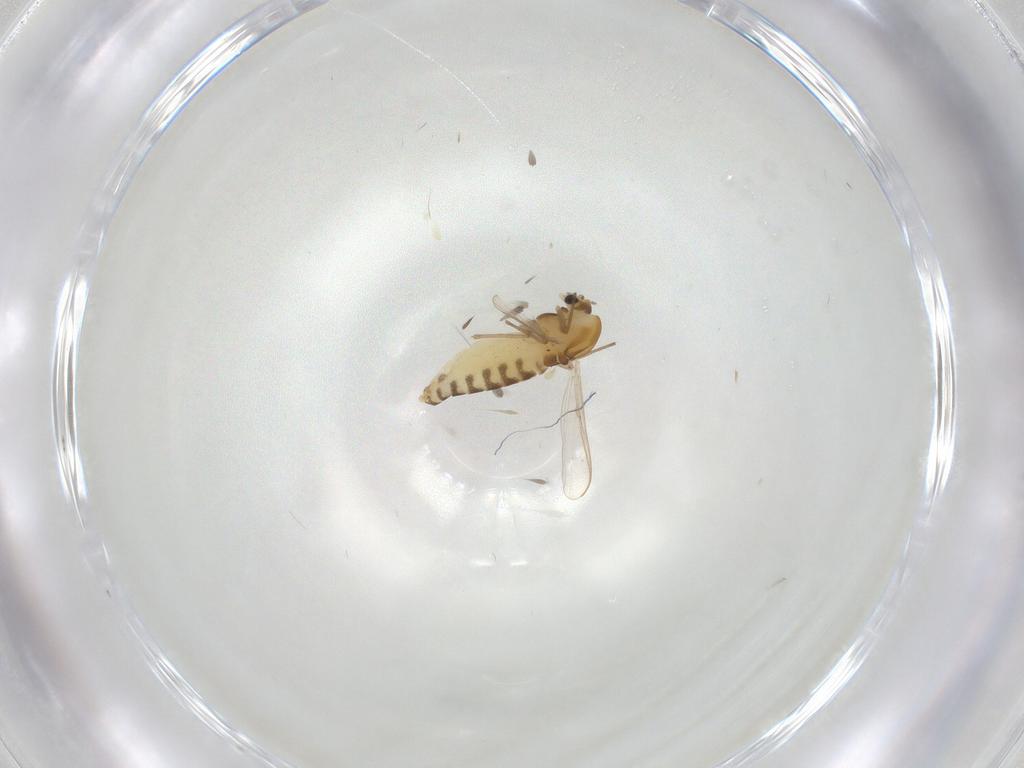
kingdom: Animalia
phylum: Arthropoda
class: Insecta
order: Diptera
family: Chironomidae
